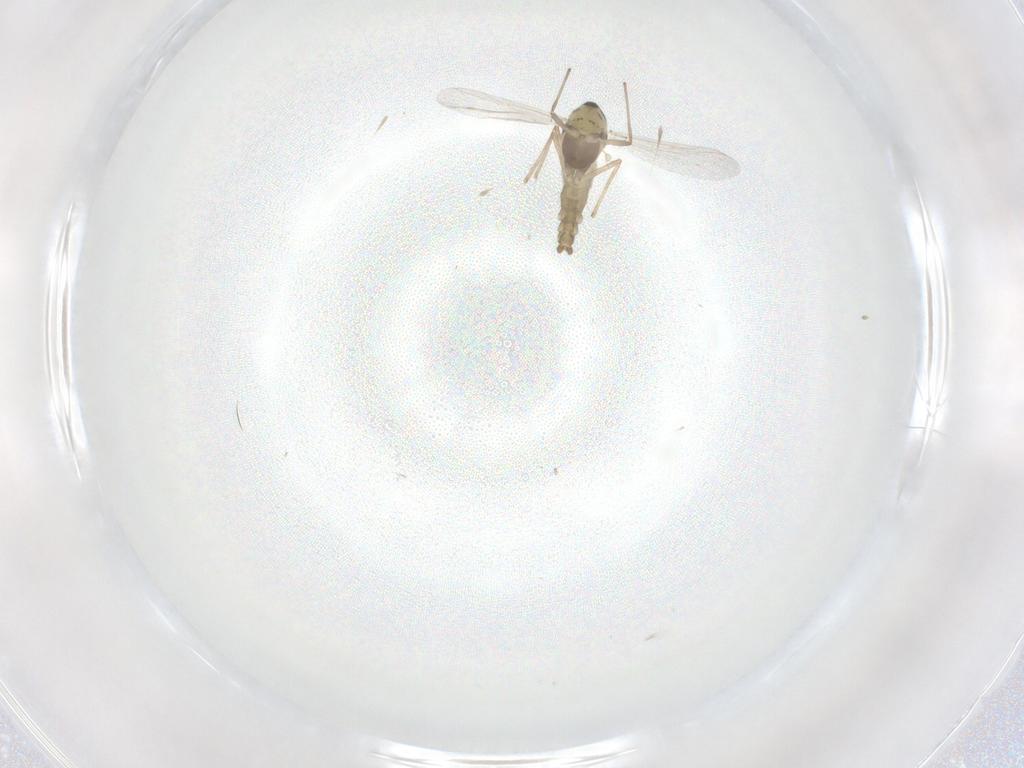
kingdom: Animalia
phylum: Arthropoda
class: Insecta
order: Diptera
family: Chironomidae
